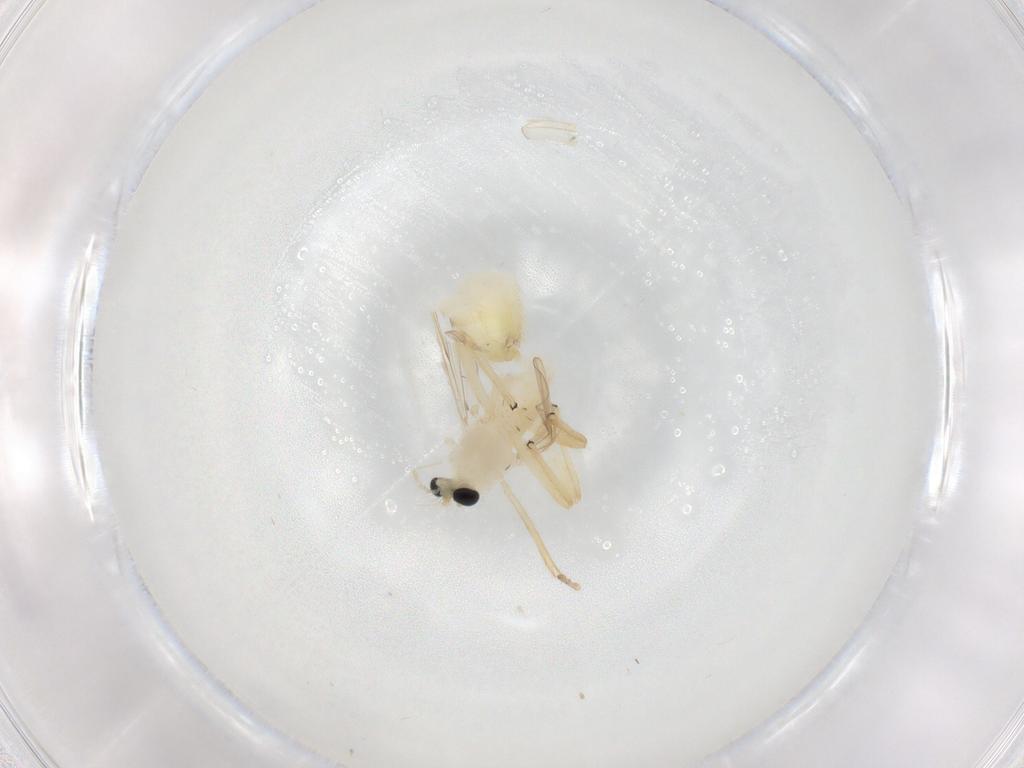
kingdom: Animalia
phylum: Arthropoda
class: Insecta
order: Diptera
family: Chironomidae
